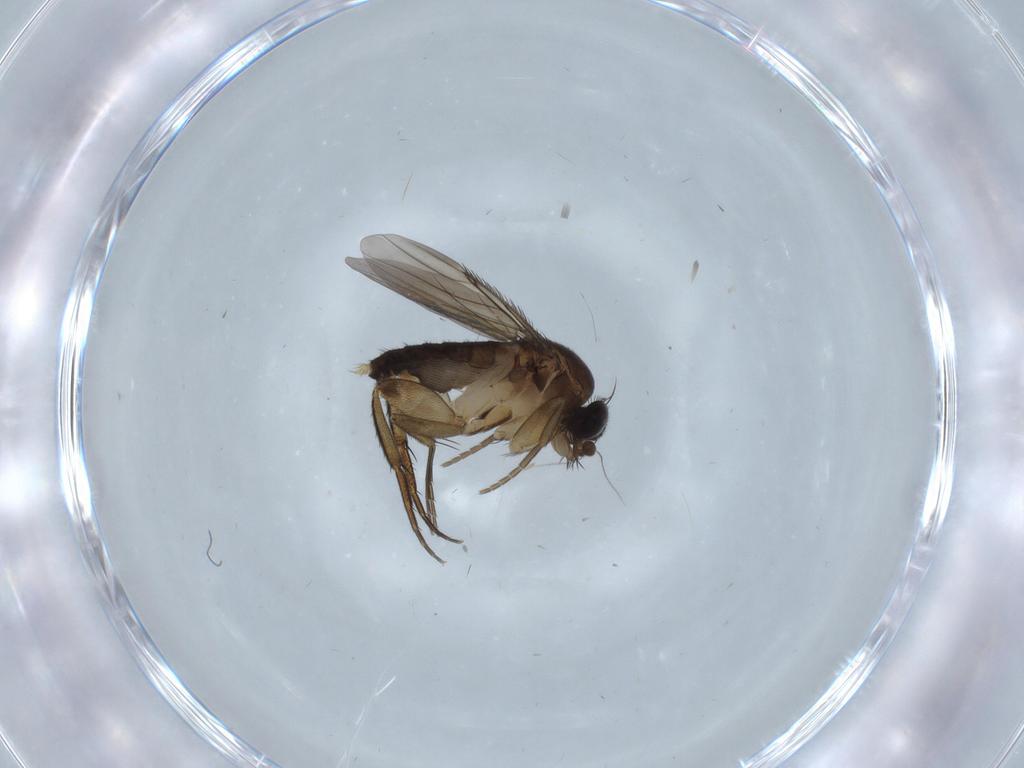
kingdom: Animalia
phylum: Arthropoda
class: Insecta
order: Diptera
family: Ceratopogonidae
